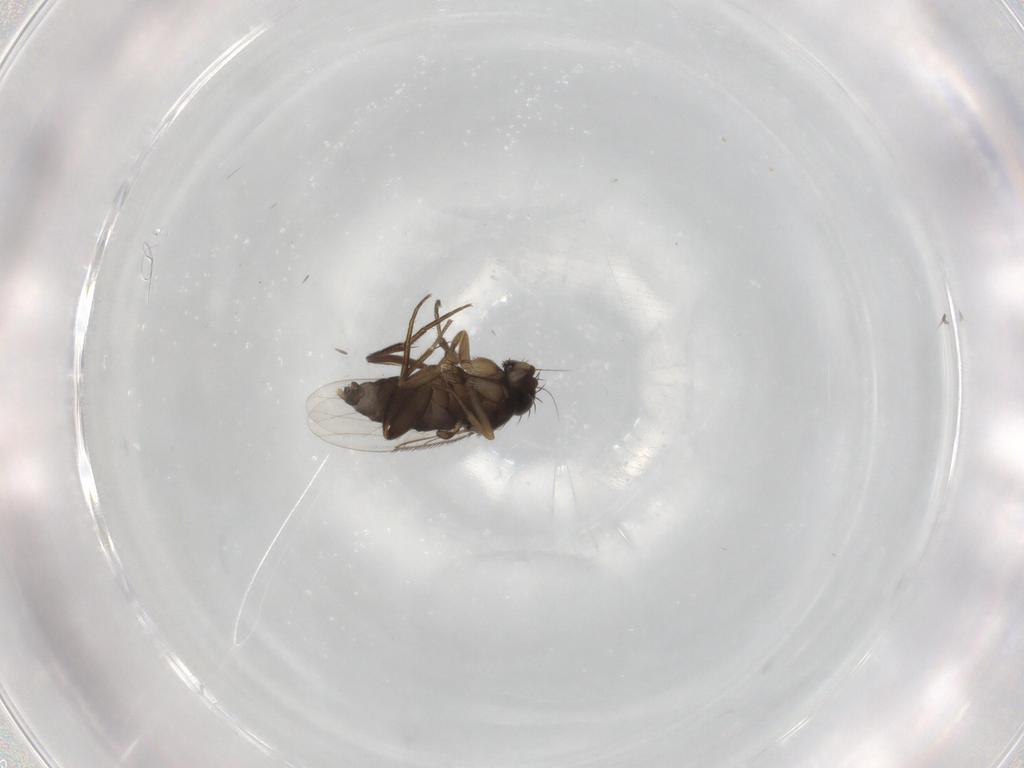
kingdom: Animalia
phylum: Arthropoda
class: Insecta
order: Diptera
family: Phoridae
